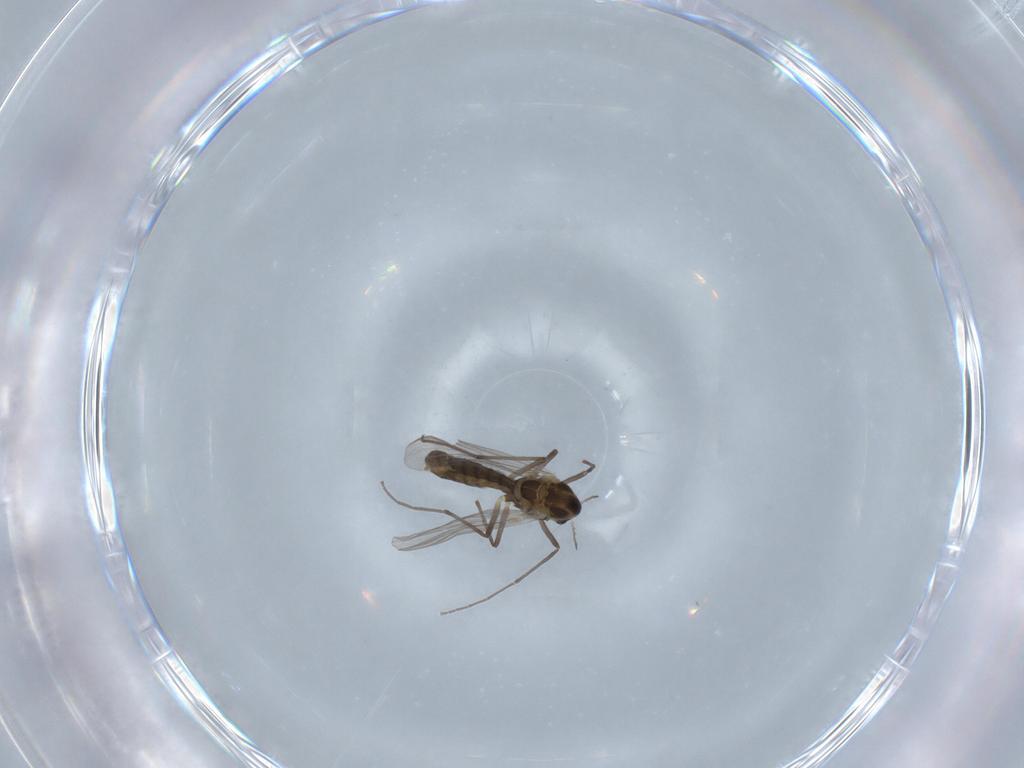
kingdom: Animalia
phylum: Arthropoda
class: Insecta
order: Diptera
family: Chironomidae
